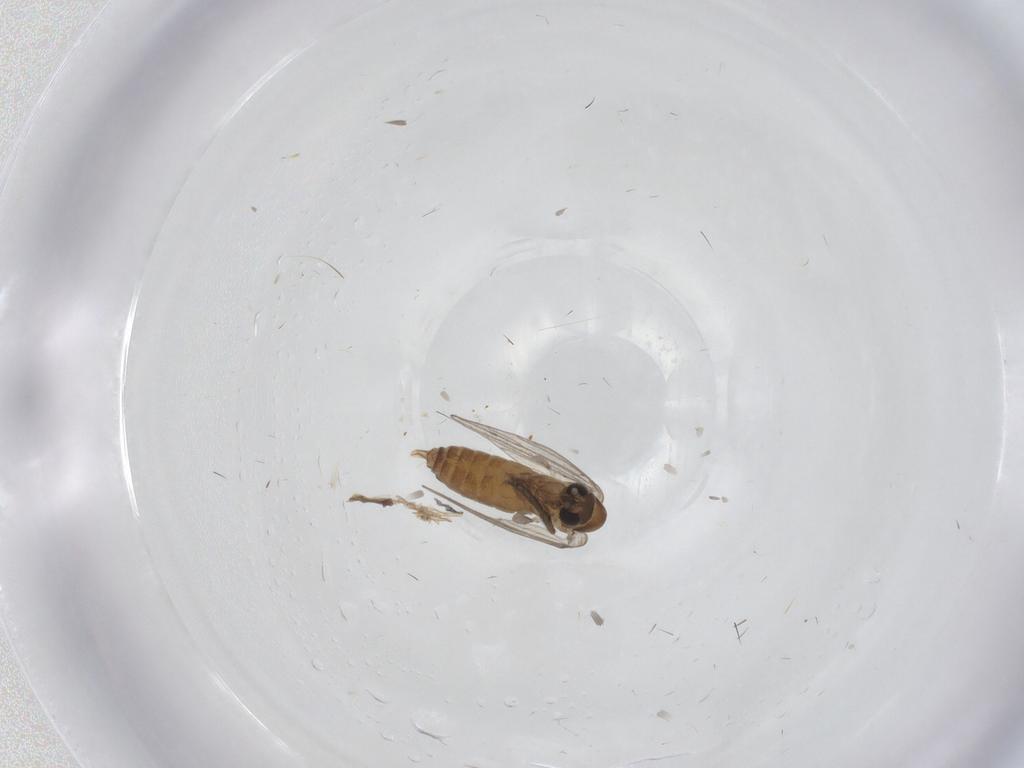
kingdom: Animalia
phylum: Arthropoda
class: Insecta
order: Diptera
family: Psychodidae
